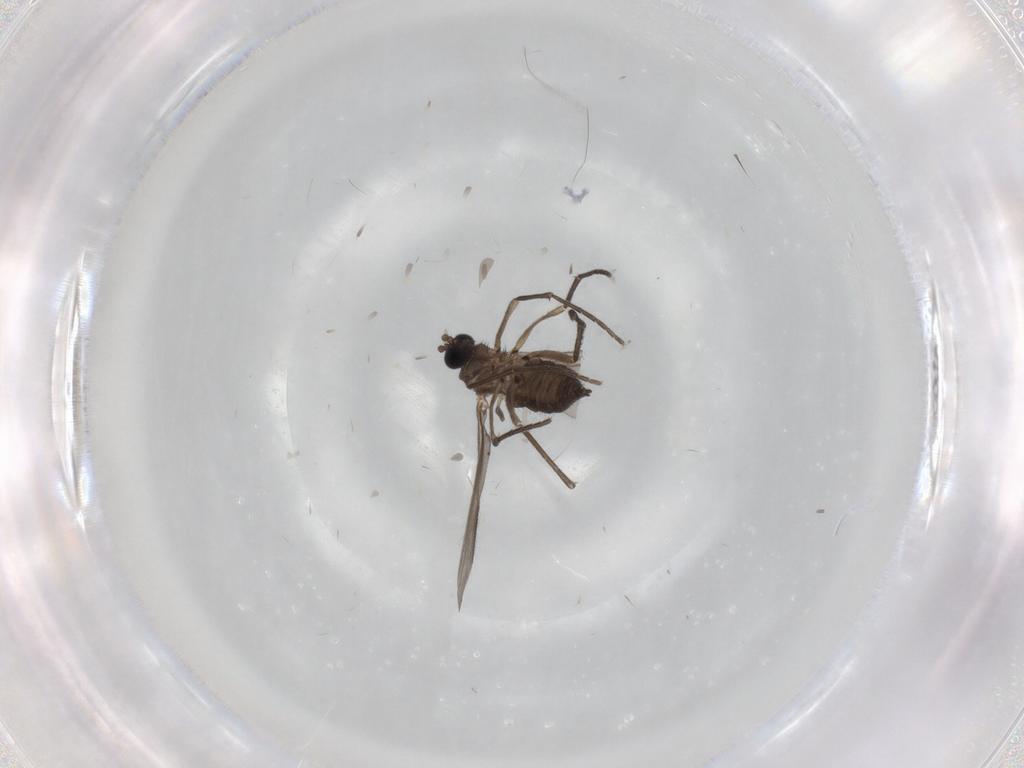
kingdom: Animalia
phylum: Arthropoda
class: Insecta
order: Diptera
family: Sciaridae
